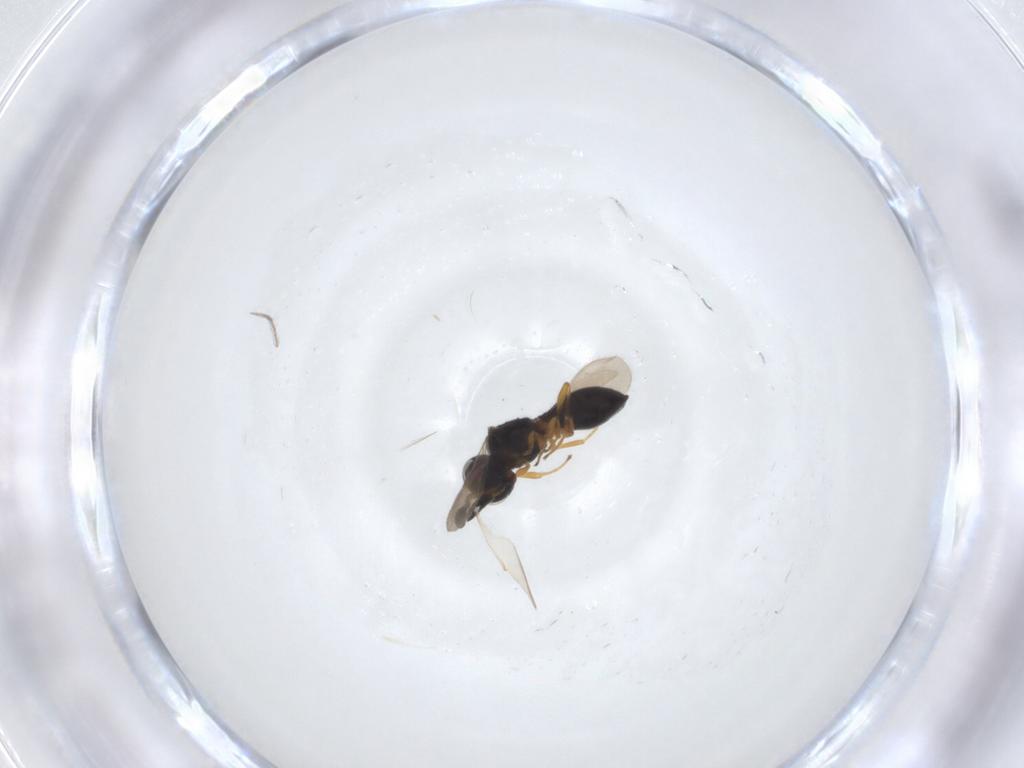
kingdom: Animalia
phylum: Arthropoda
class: Insecta
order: Hymenoptera
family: Scelionidae
